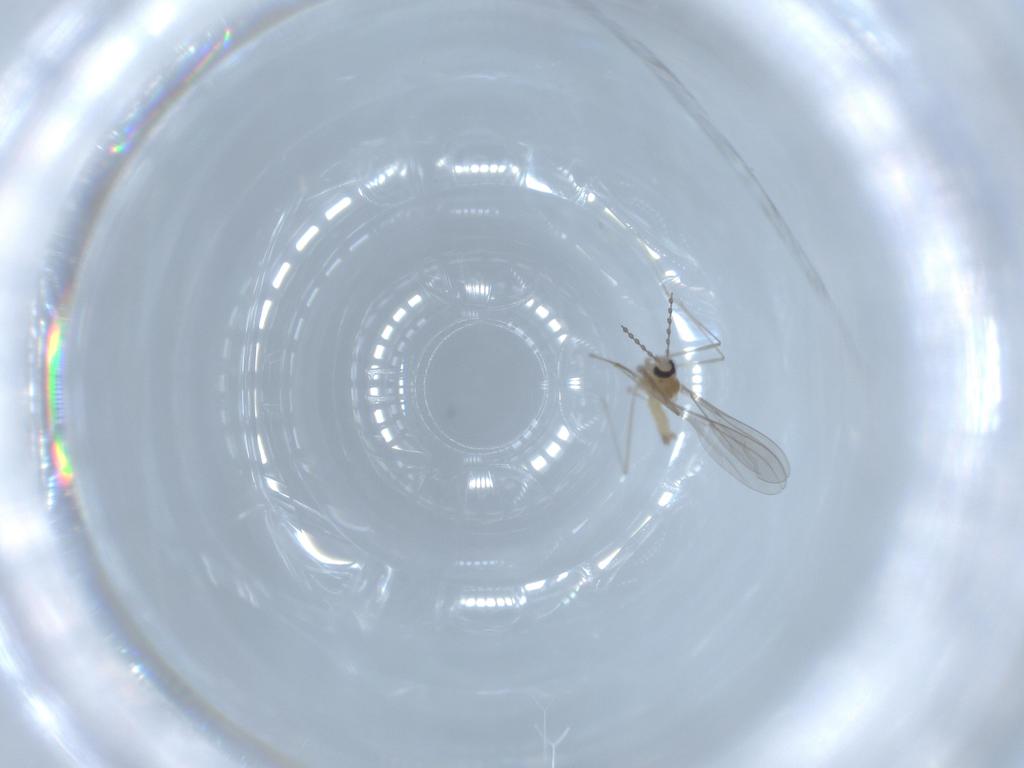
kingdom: Animalia
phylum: Arthropoda
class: Insecta
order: Diptera
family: Cecidomyiidae
